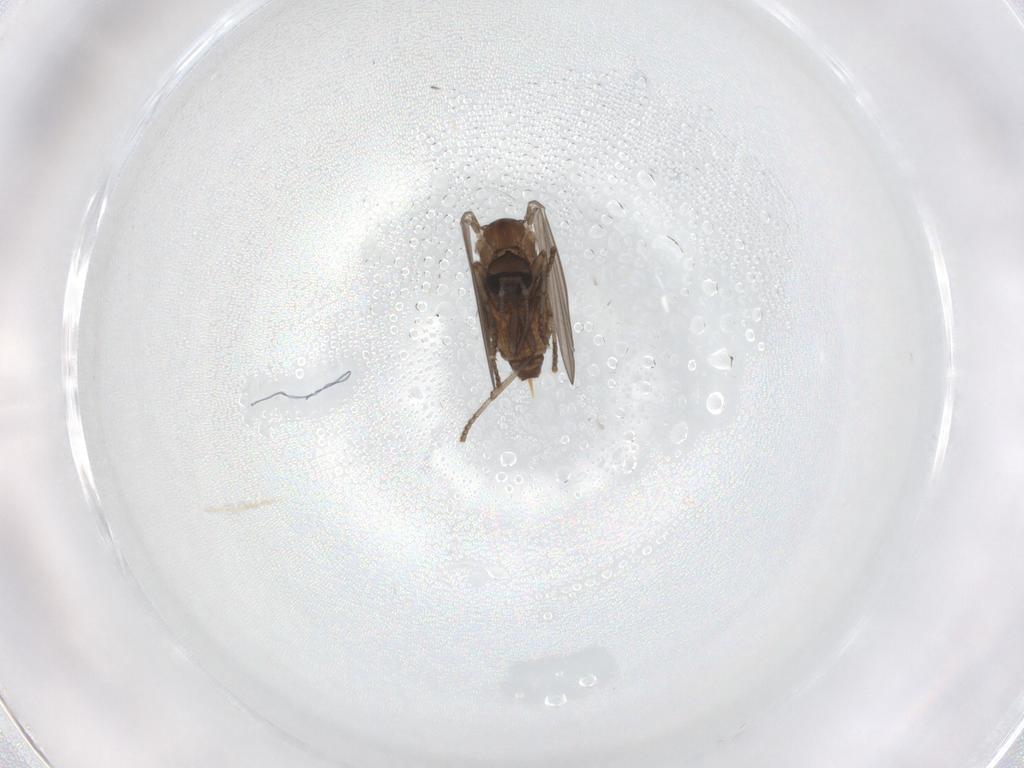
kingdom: Animalia
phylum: Arthropoda
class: Insecta
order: Diptera
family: Psychodidae
